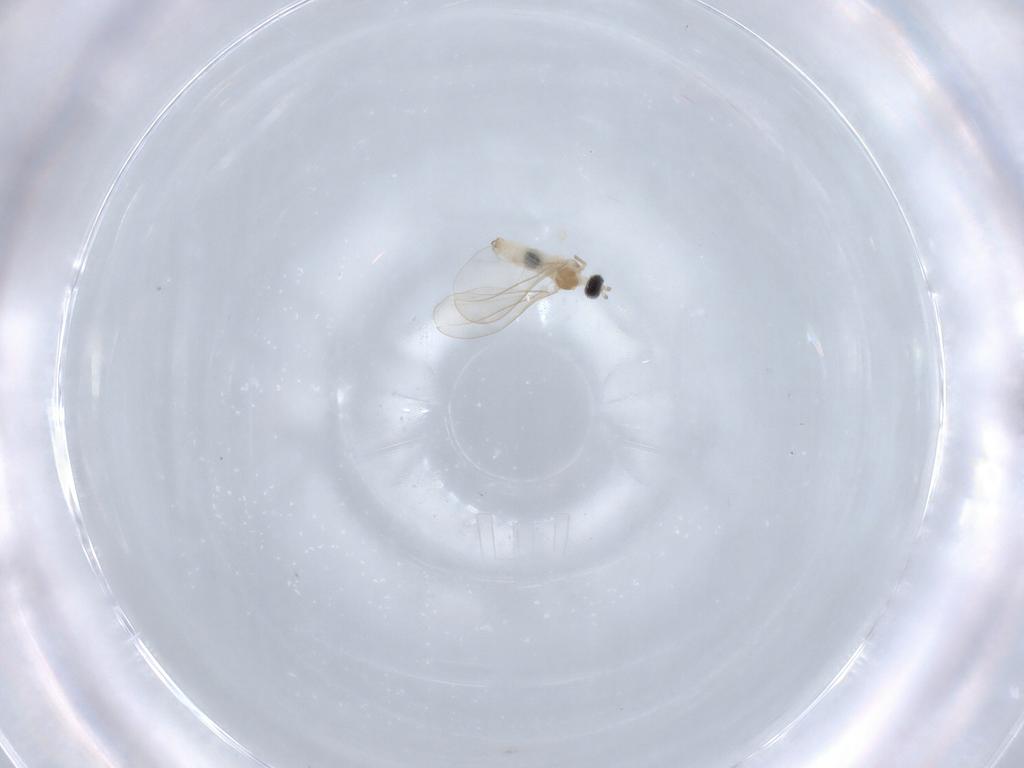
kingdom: Animalia
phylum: Arthropoda
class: Insecta
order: Diptera
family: Cecidomyiidae
